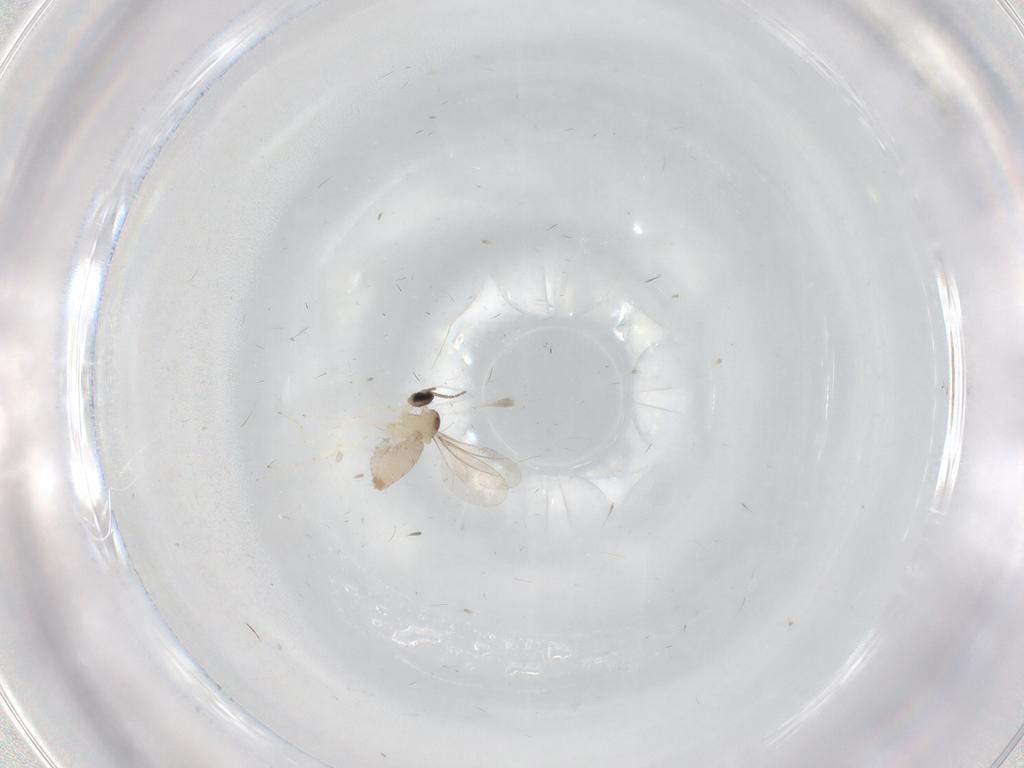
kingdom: Animalia
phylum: Arthropoda
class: Insecta
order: Diptera
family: Cecidomyiidae
